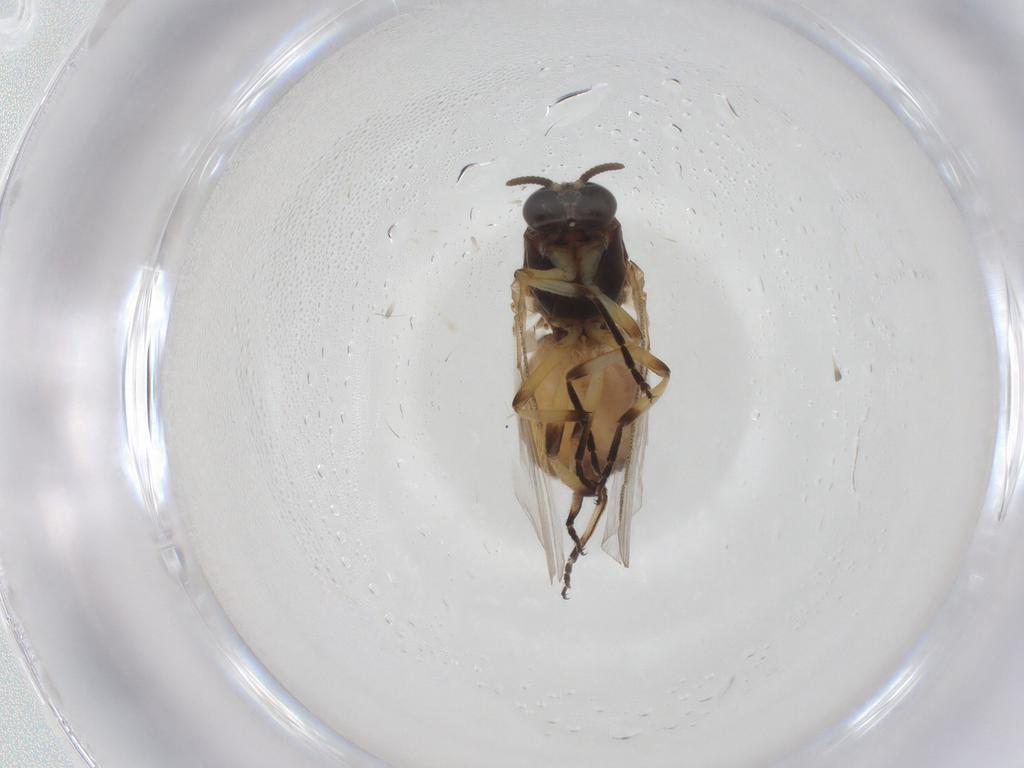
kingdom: Animalia
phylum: Arthropoda
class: Insecta
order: Diptera
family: Simuliidae
